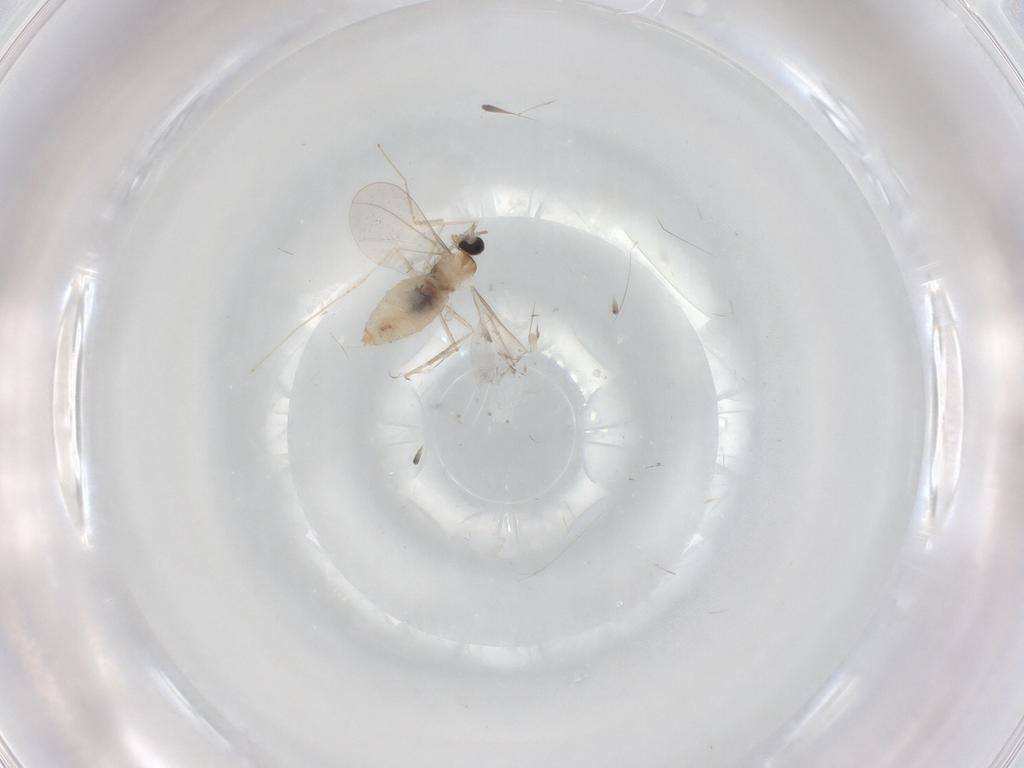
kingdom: Animalia
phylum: Arthropoda
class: Insecta
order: Diptera
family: Cecidomyiidae
